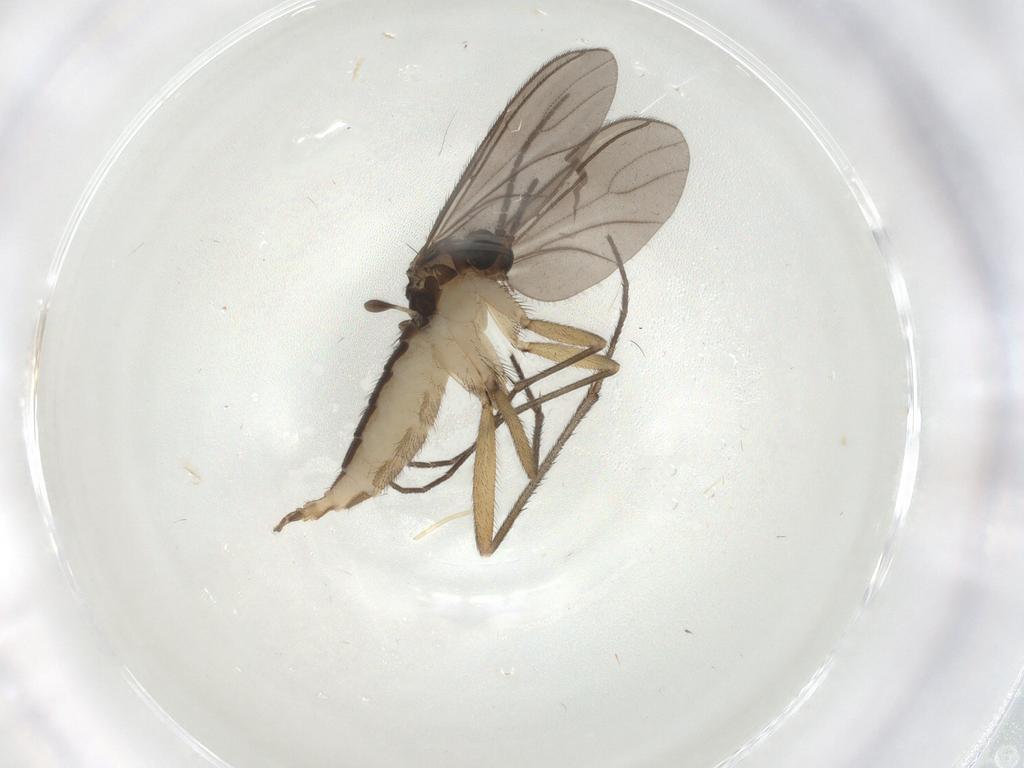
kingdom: Animalia
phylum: Arthropoda
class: Insecta
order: Diptera
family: Sciaridae
